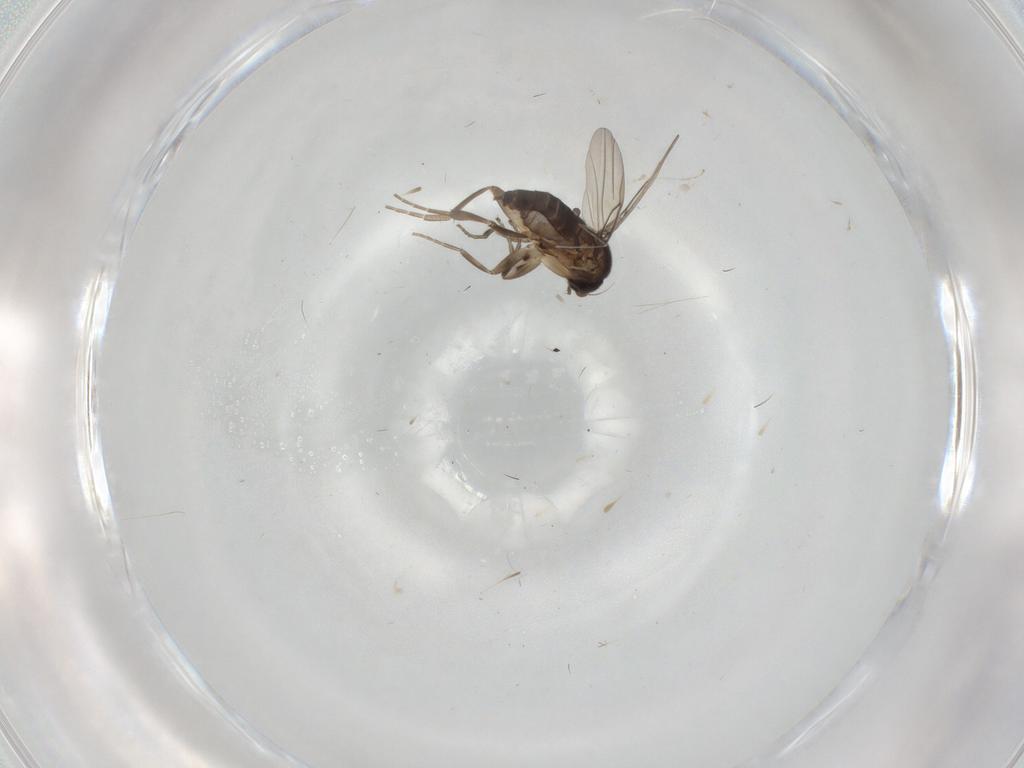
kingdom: Animalia
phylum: Arthropoda
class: Insecta
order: Diptera
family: Phoridae
